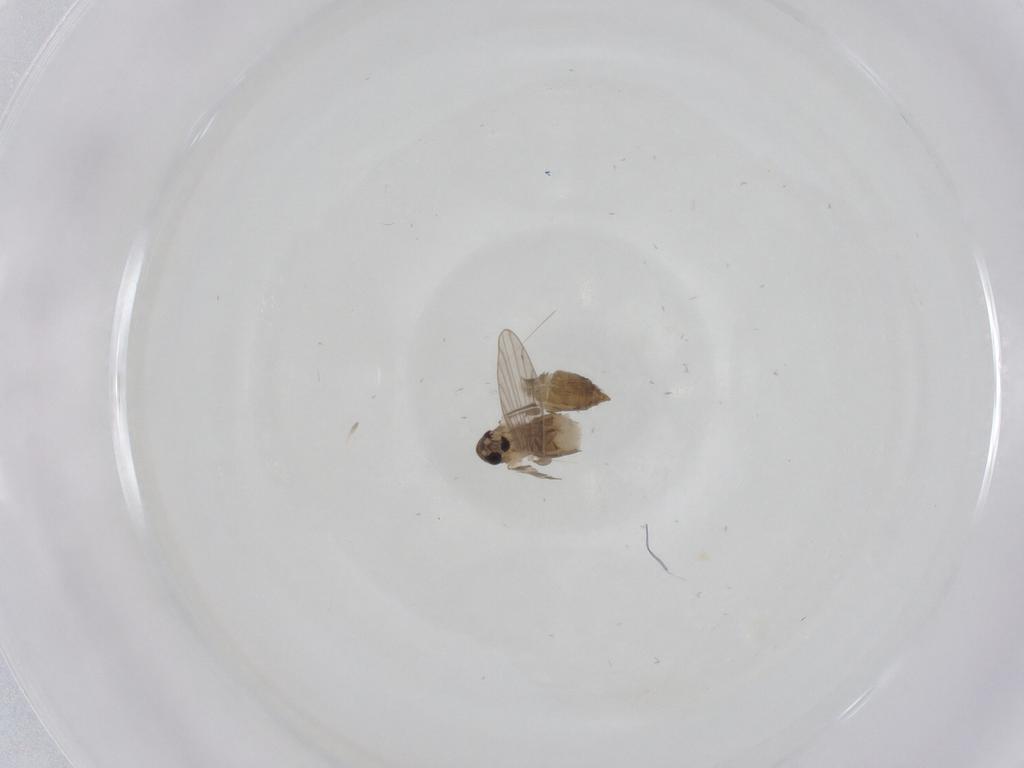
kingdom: Animalia
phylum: Arthropoda
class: Insecta
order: Diptera
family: Psychodidae
